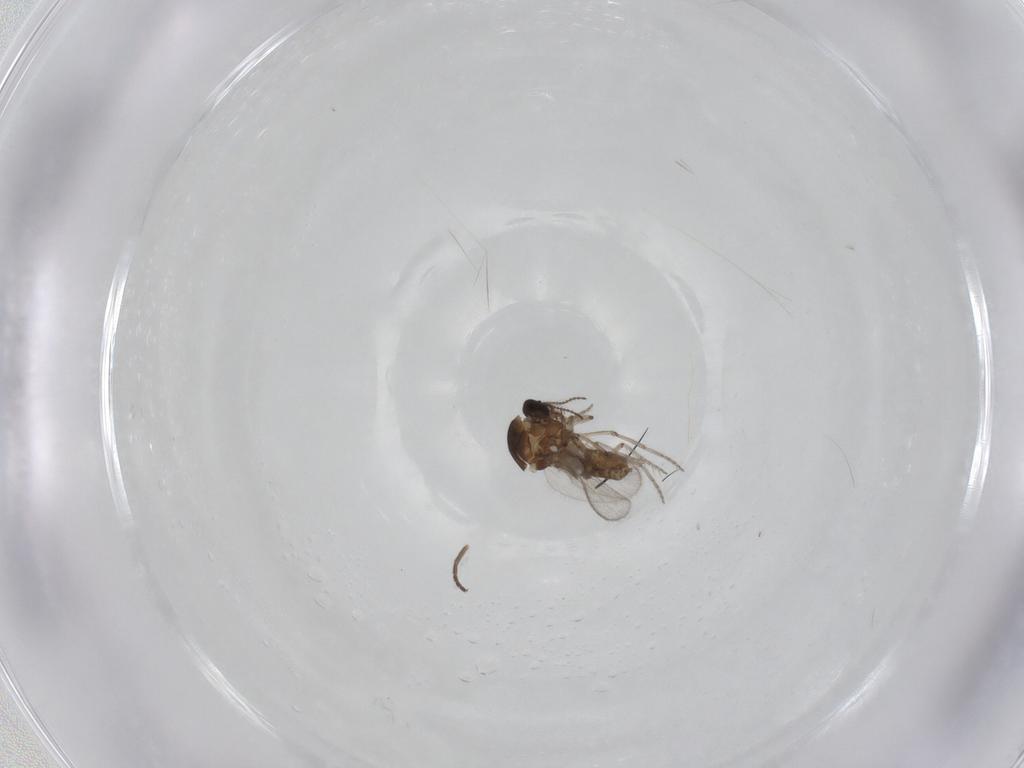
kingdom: Animalia
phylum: Arthropoda
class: Insecta
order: Diptera
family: Ceratopogonidae
